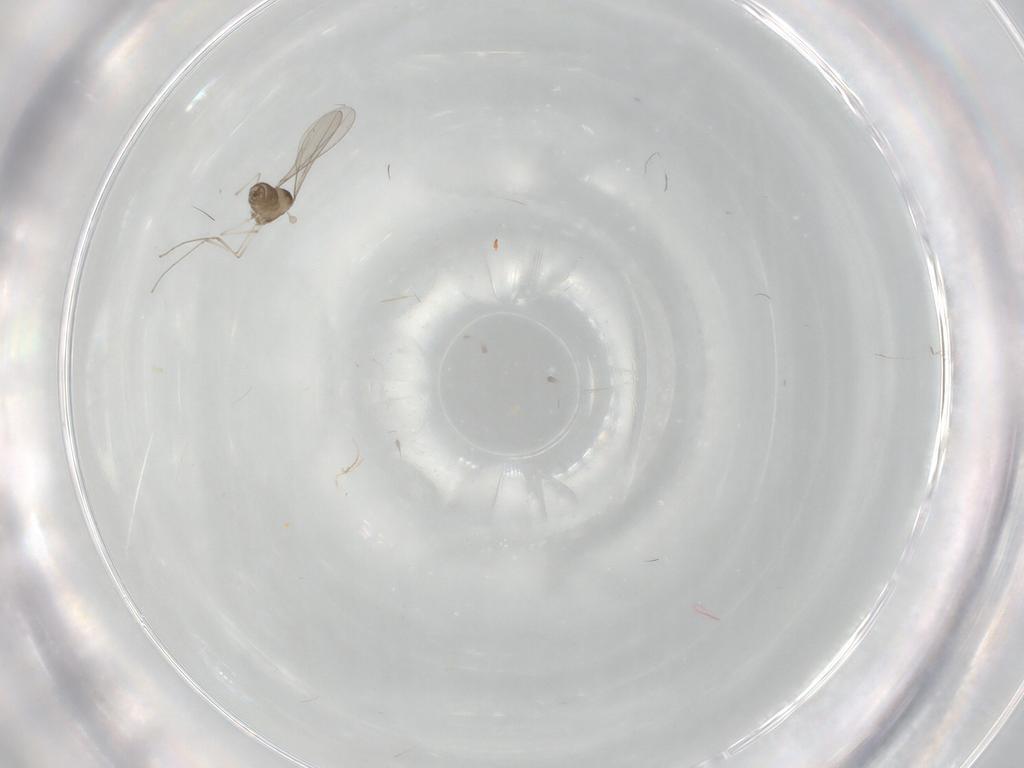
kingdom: Animalia
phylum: Arthropoda
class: Insecta
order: Diptera
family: Cecidomyiidae
